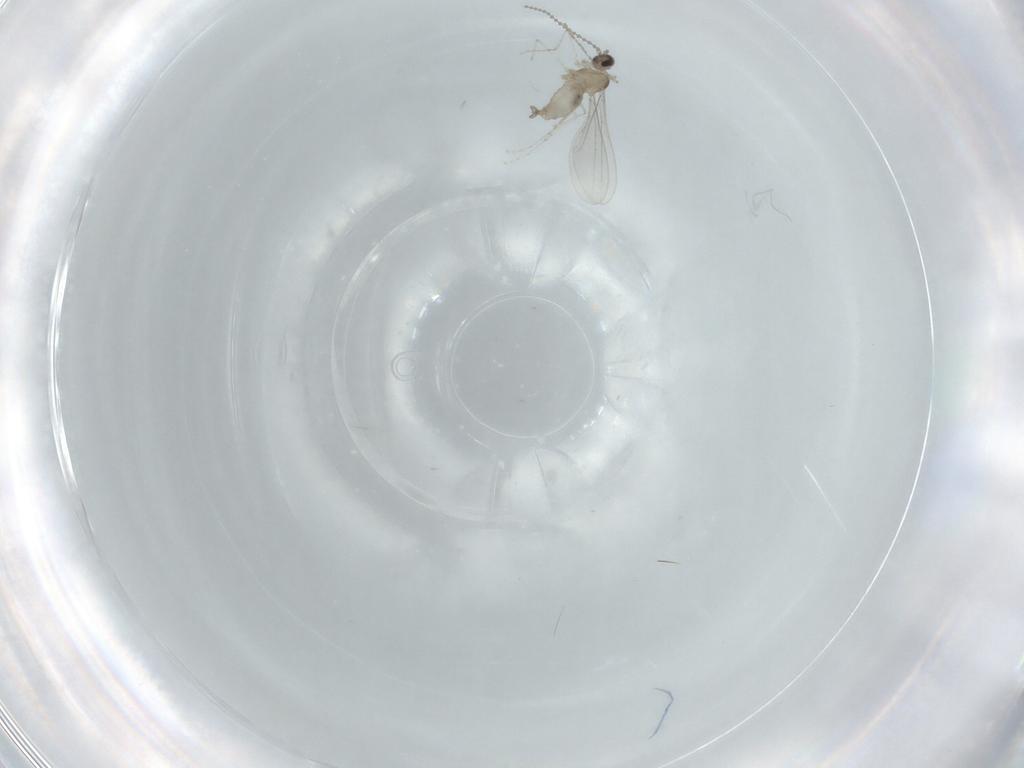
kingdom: Animalia
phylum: Arthropoda
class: Insecta
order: Diptera
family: Cecidomyiidae
